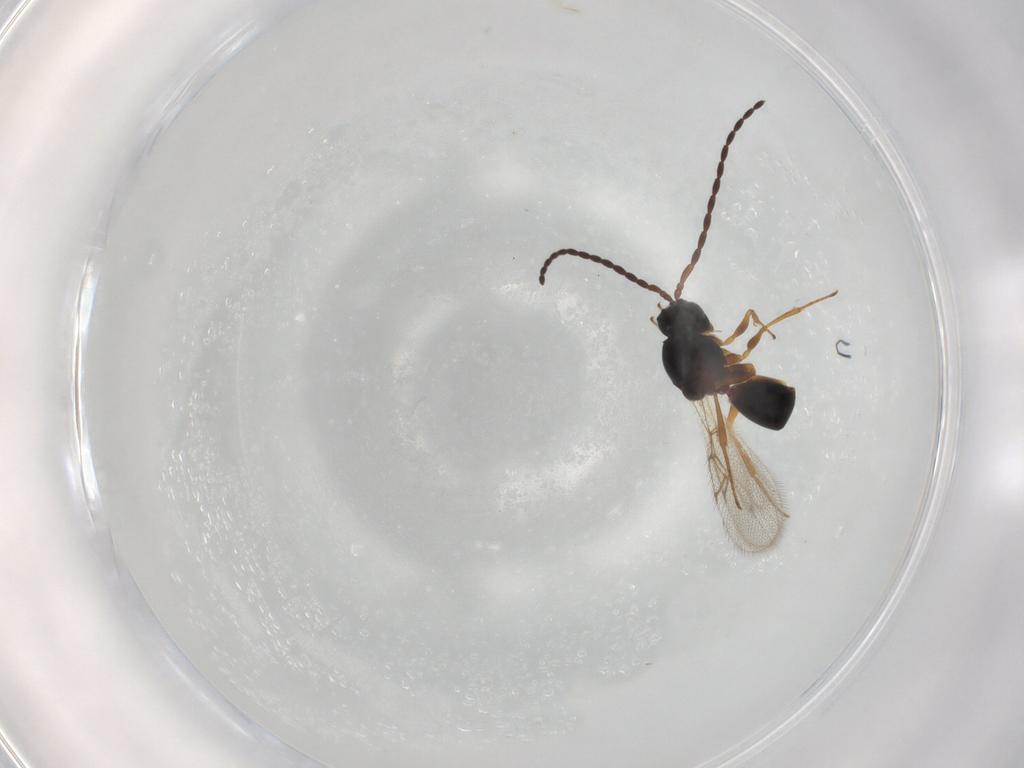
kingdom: Animalia
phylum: Arthropoda
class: Insecta
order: Hymenoptera
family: Figitidae
